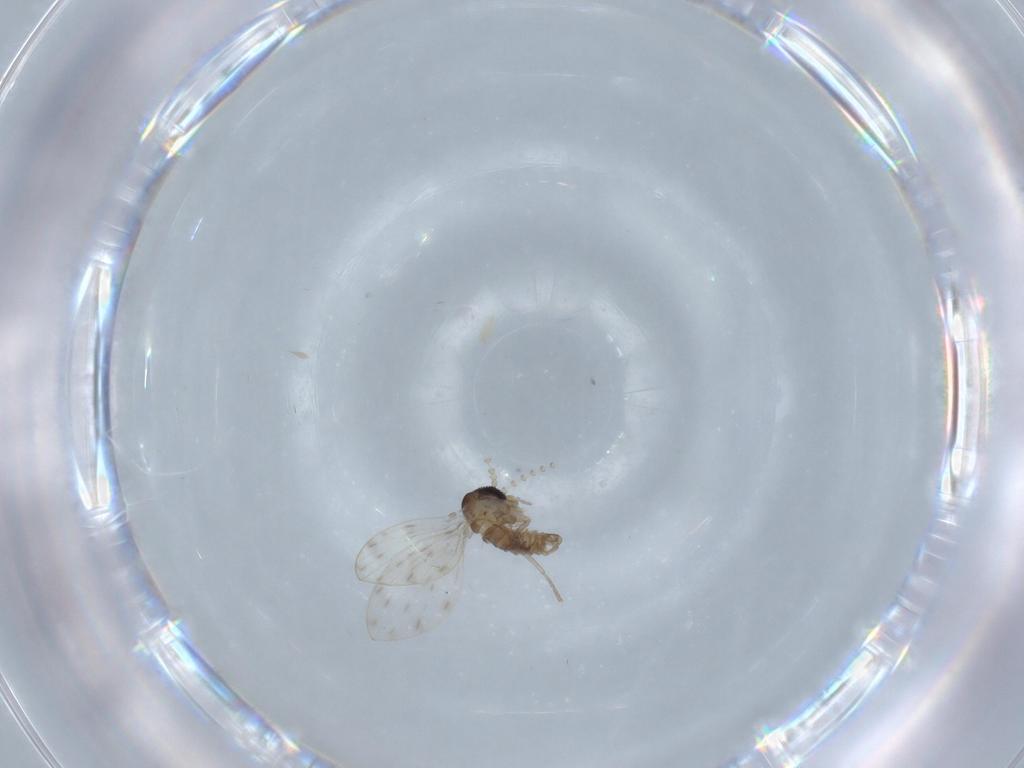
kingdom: Animalia
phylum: Arthropoda
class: Insecta
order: Diptera
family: Psychodidae
